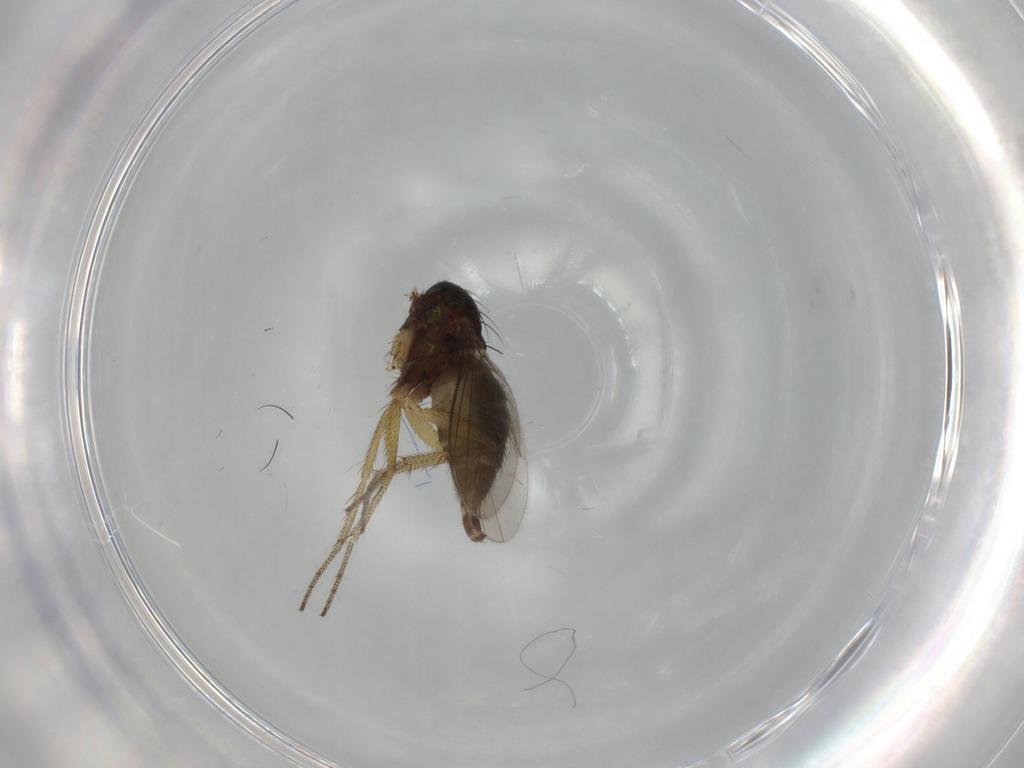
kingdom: Animalia
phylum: Arthropoda
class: Insecta
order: Diptera
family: Dolichopodidae
